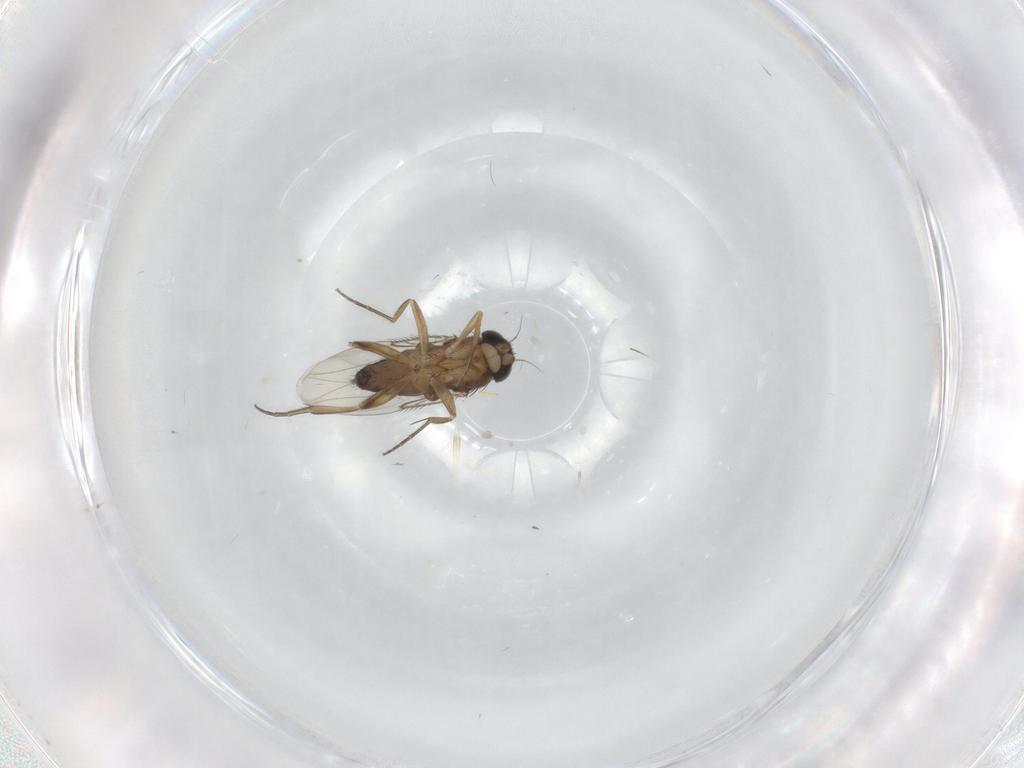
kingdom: Animalia
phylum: Arthropoda
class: Insecta
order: Diptera
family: Phoridae
